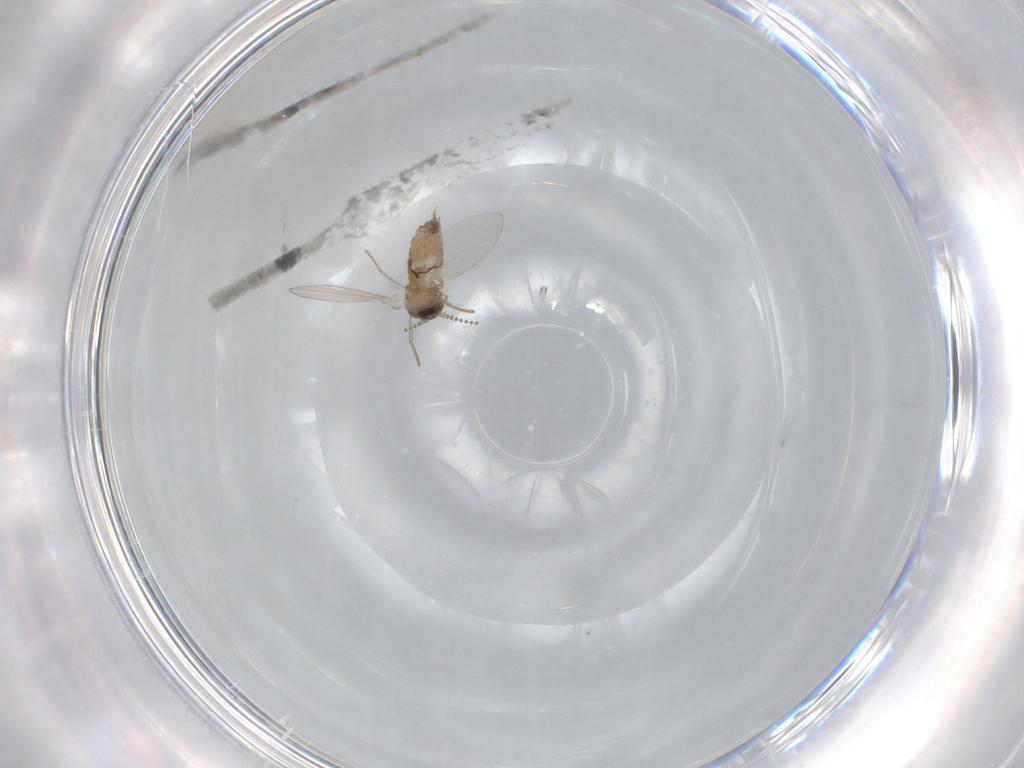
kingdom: Animalia
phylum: Arthropoda
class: Insecta
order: Diptera
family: Psychodidae
